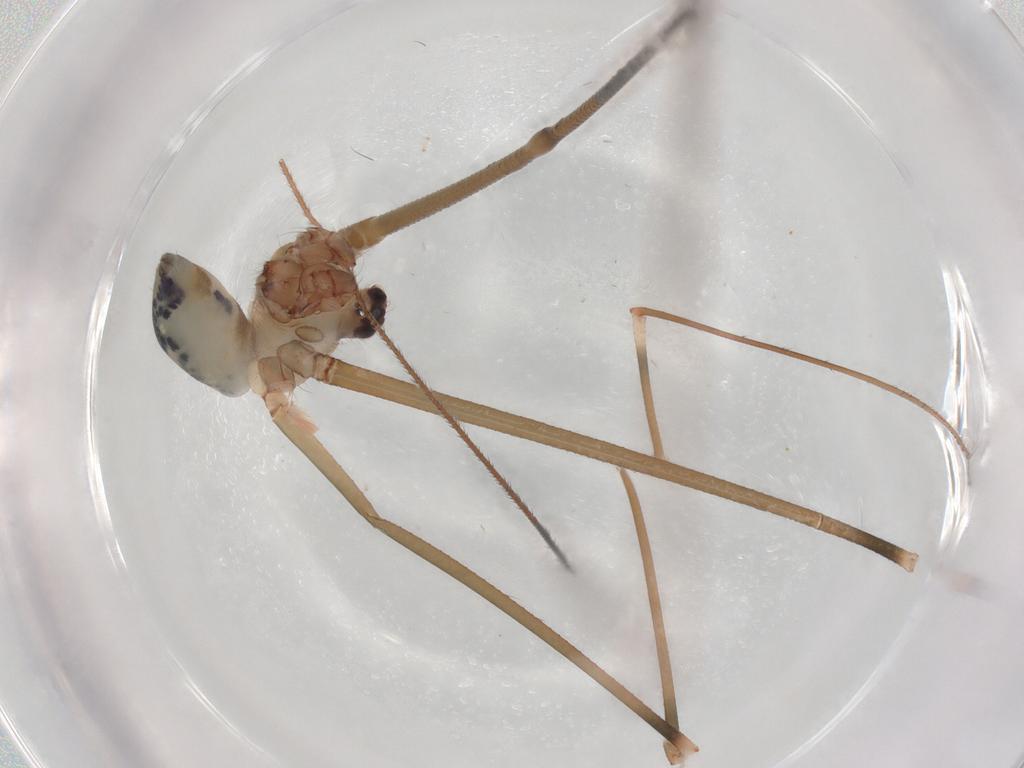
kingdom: Animalia
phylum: Arthropoda
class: Arachnida
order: Araneae
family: Pholcidae
